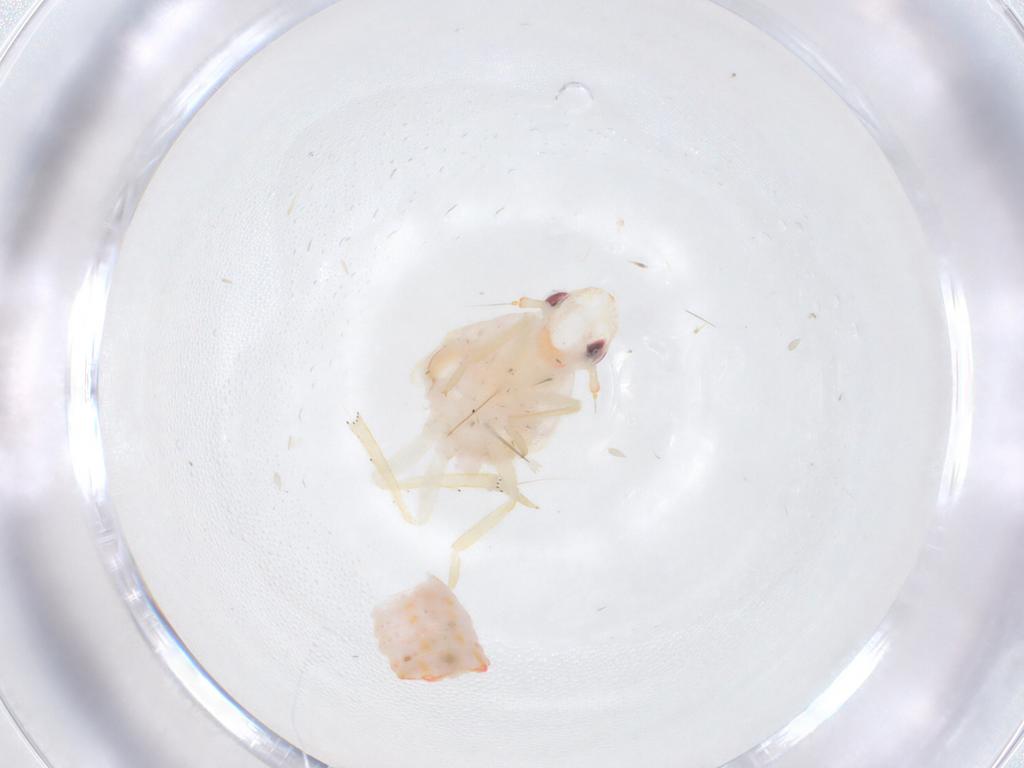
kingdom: Animalia
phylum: Arthropoda
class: Insecta
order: Hemiptera
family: Flatidae
